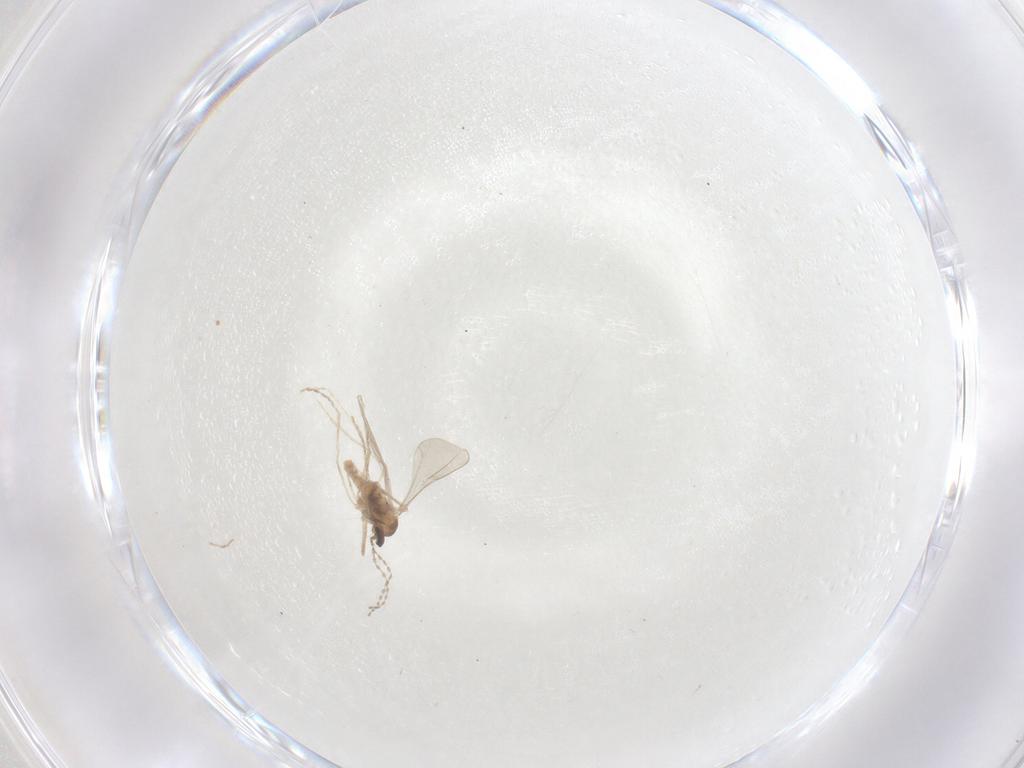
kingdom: Animalia
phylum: Arthropoda
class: Insecta
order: Diptera
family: Cecidomyiidae
